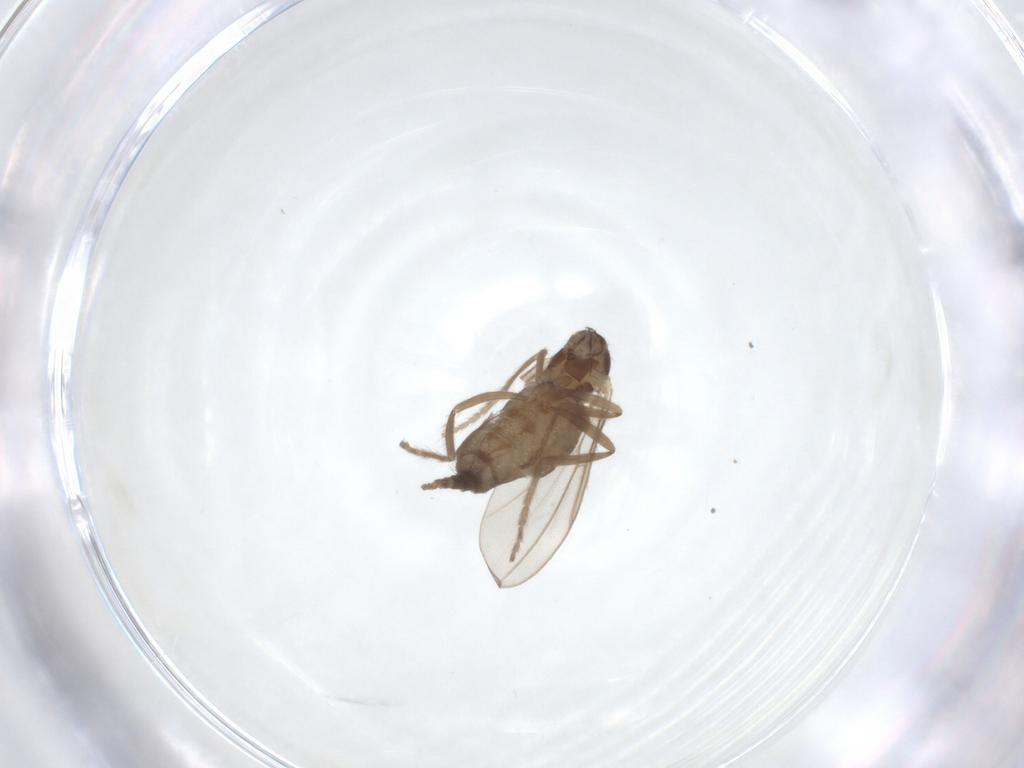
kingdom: Animalia
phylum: Arthropoda
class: Insecta
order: Diptera
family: Cecidomyiidae
